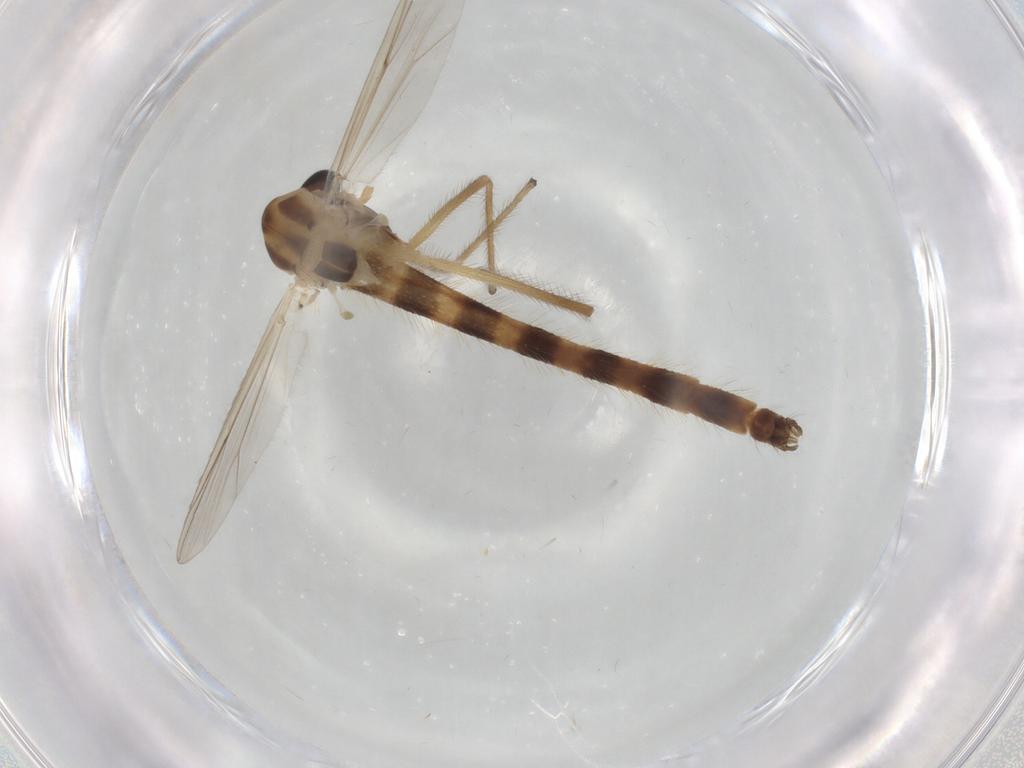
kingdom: Animalia
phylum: Arthropoda
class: Insecta
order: Diptera
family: Chironomidae
